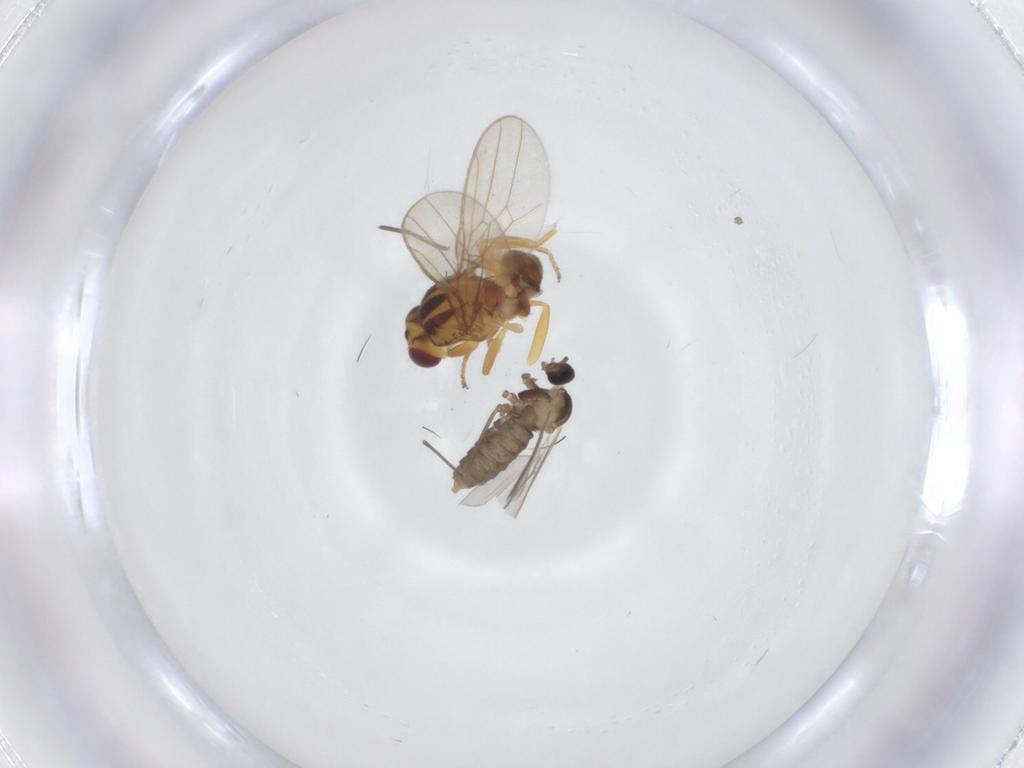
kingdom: Animalia
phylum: Arthropoda
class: Insecta
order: Diptera
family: Chloropidae
